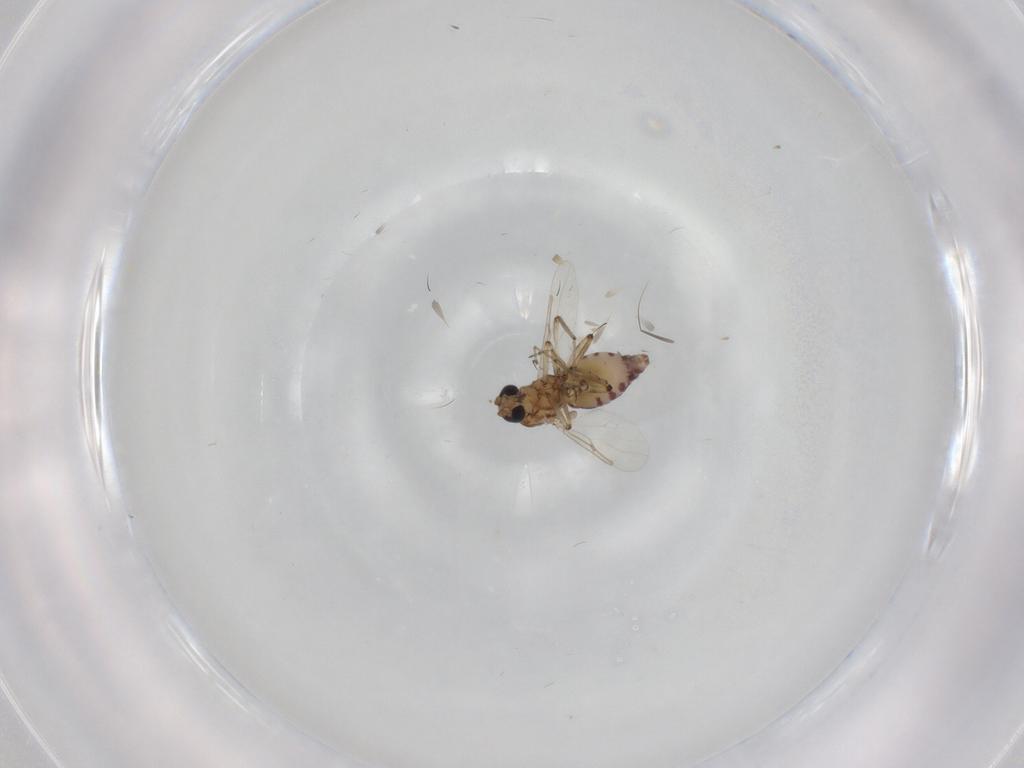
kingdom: Animalia
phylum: Arthropoda
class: Insecta
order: Diptera
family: Ceratopogonidae
